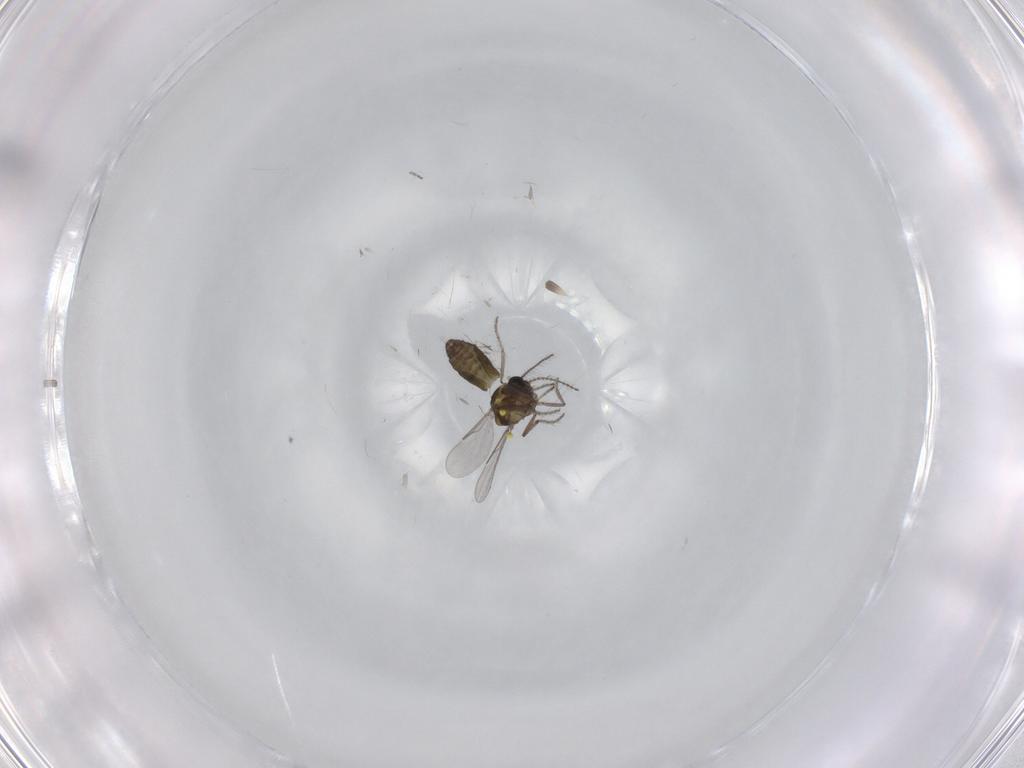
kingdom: Animalia
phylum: Arthropoda
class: Insecta
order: Diptera
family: Ceratopogonidae
